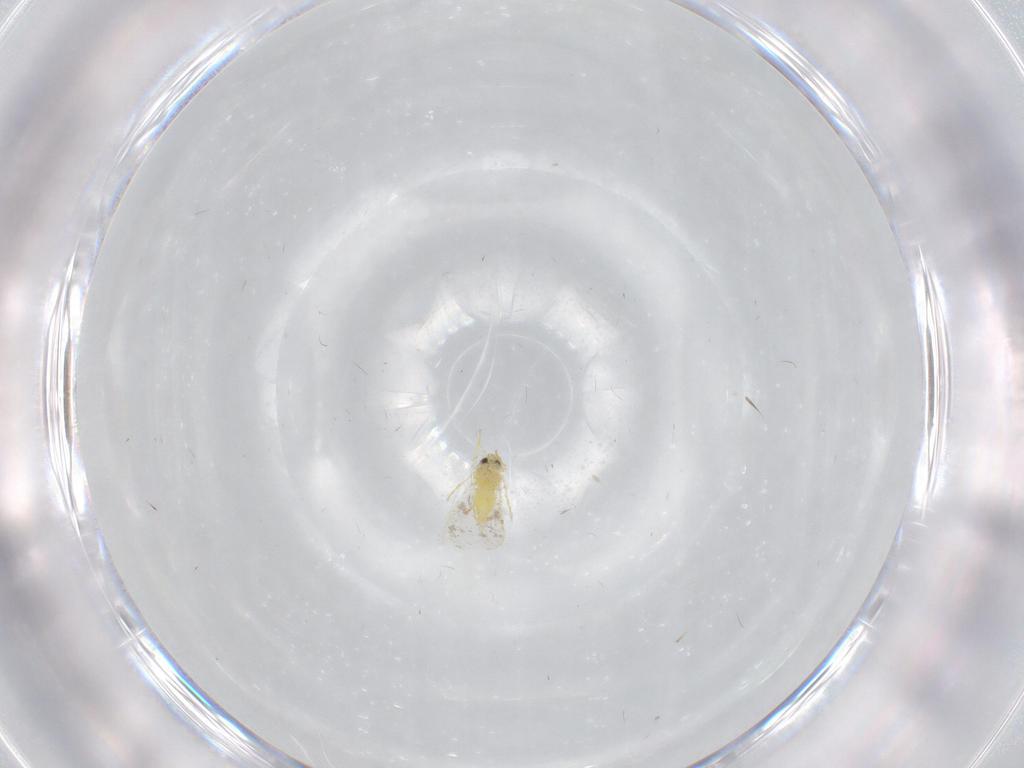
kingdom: Animalia
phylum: Arthropoda
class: Insecta
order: Hemiptera
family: Aleyrodidae
